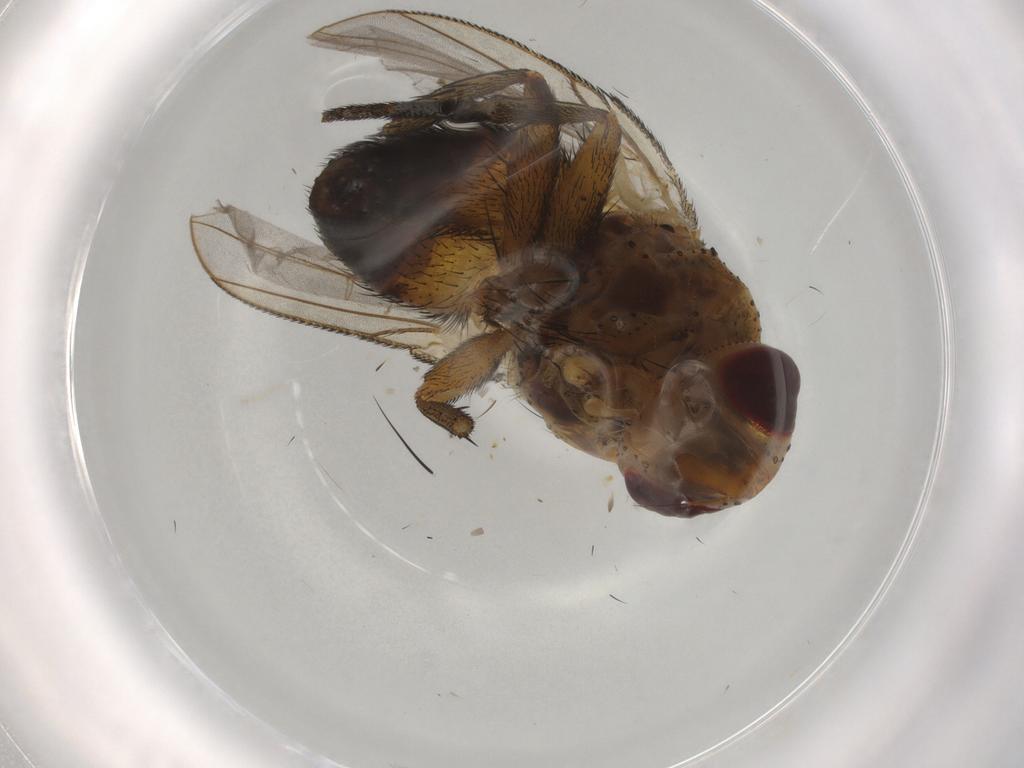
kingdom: Animalia
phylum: Arthropoda
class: Insecta
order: Diptera
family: Tachinidae
